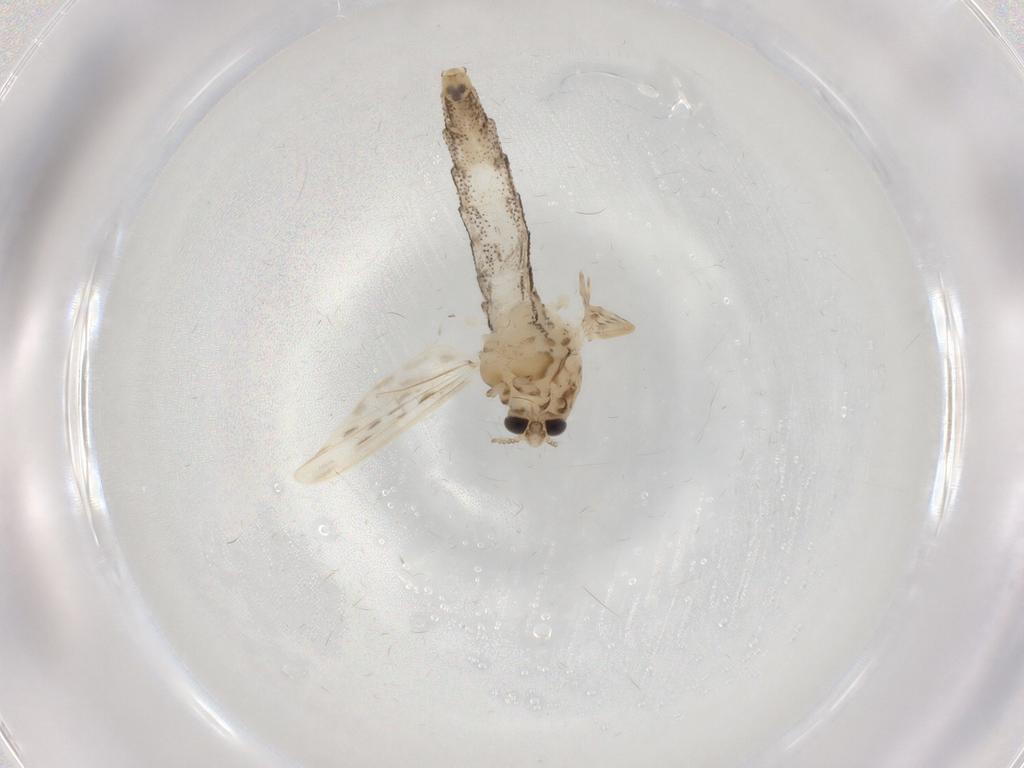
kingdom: Animalia
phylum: Arthropoda
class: Insecta
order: Diptera
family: Chaoboridae
